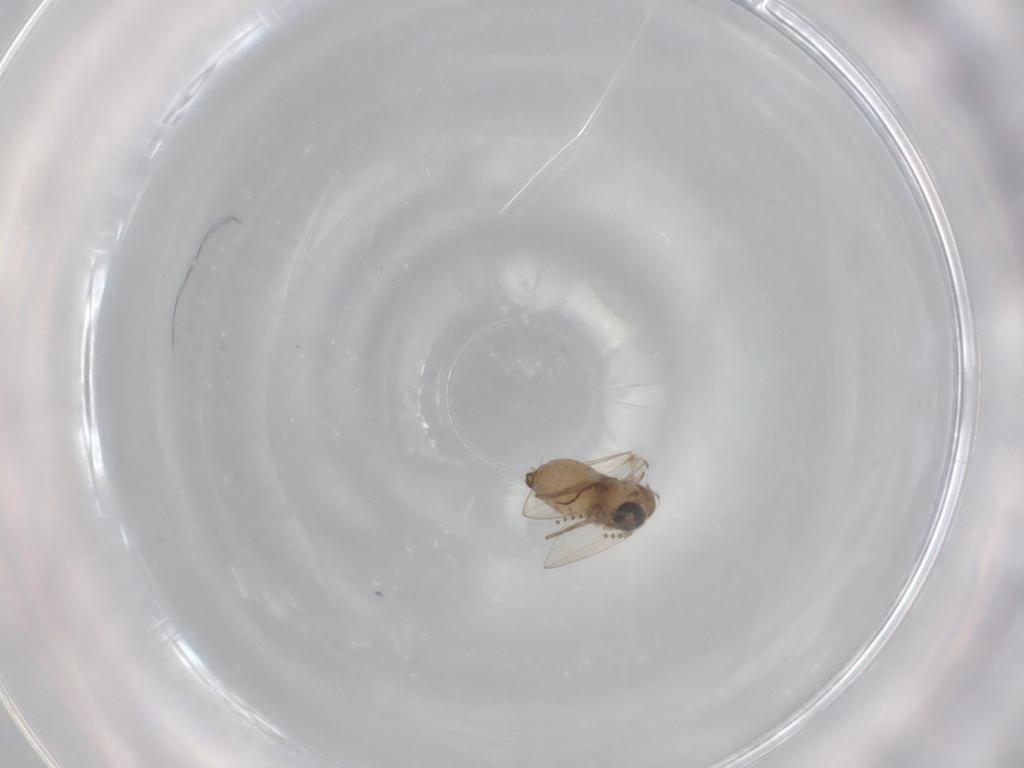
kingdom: Animalia
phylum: Arthropoda
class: Insecta
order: Diptera
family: Psychodidae
